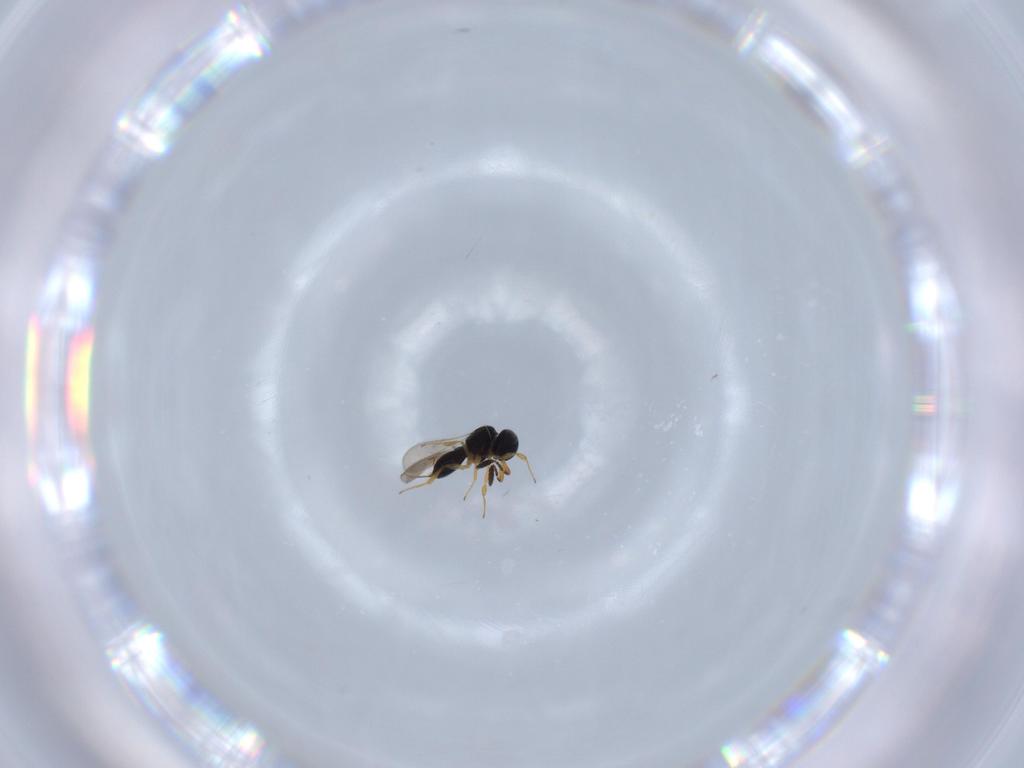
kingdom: Animalia
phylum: Arthropoda
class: Insecta
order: Hymenoptera
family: Scelionidae
